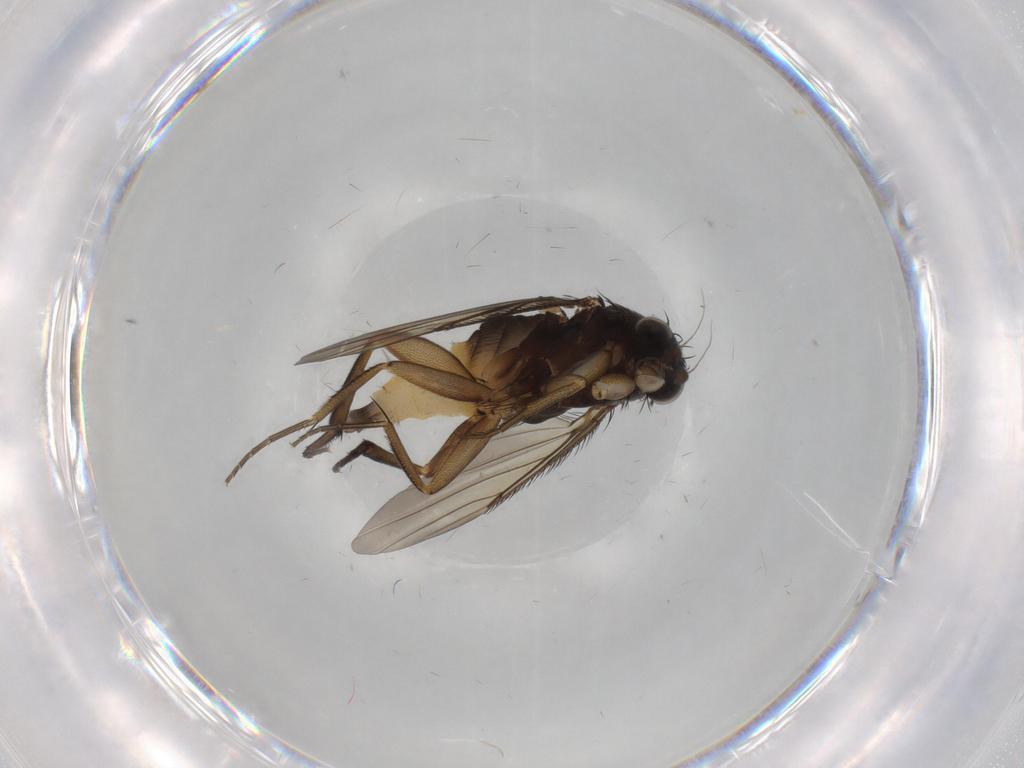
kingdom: Animalia
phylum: Arthropoda
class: Insecta
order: Diptera
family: Phoridae
